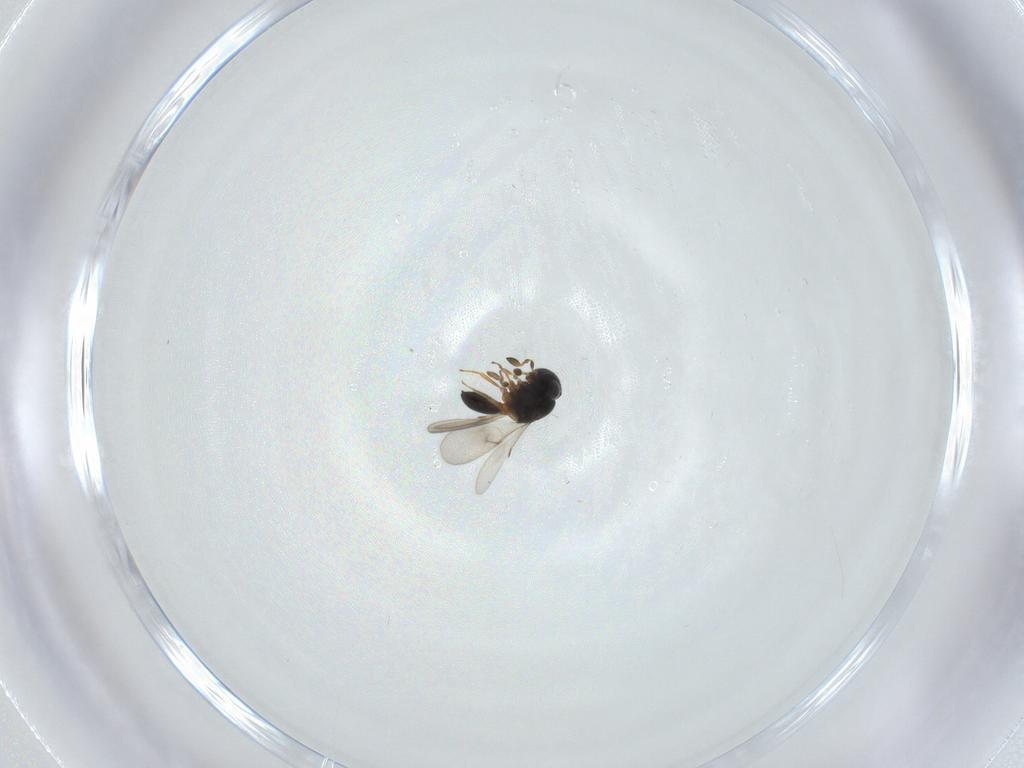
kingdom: Animalia
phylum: Arthropoda
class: Insecta
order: Hymenoptera
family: Scelionidae
